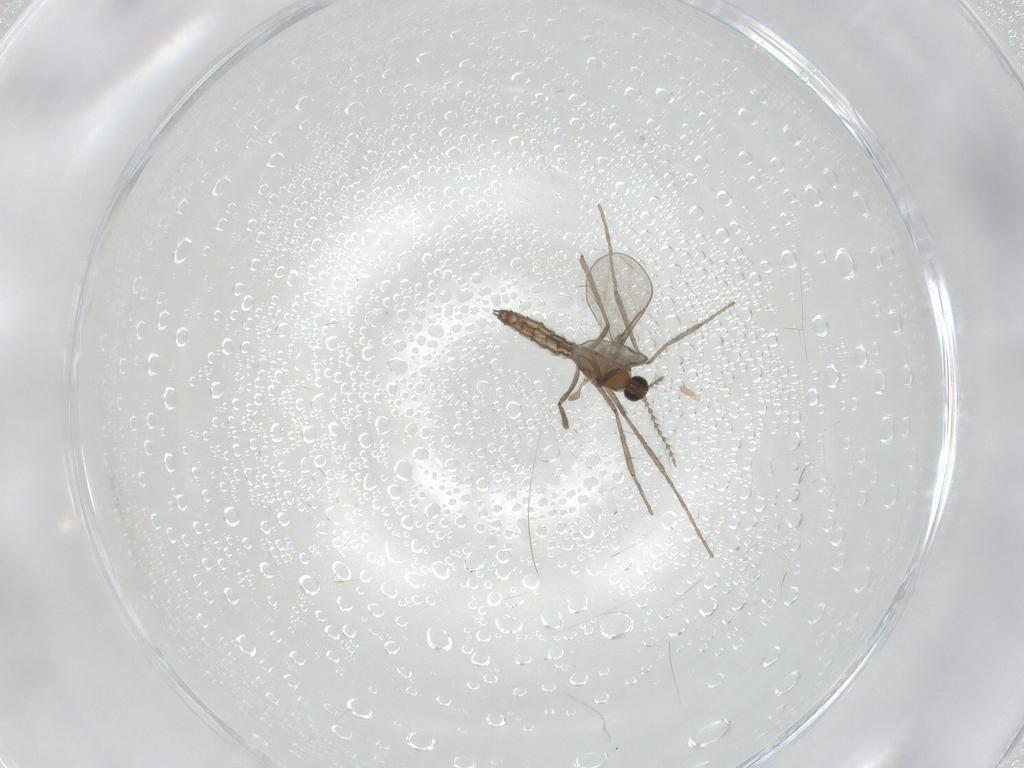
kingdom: Animalia
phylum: Arthropoda
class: Insecta
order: Diptera
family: Cecidomyiidae
